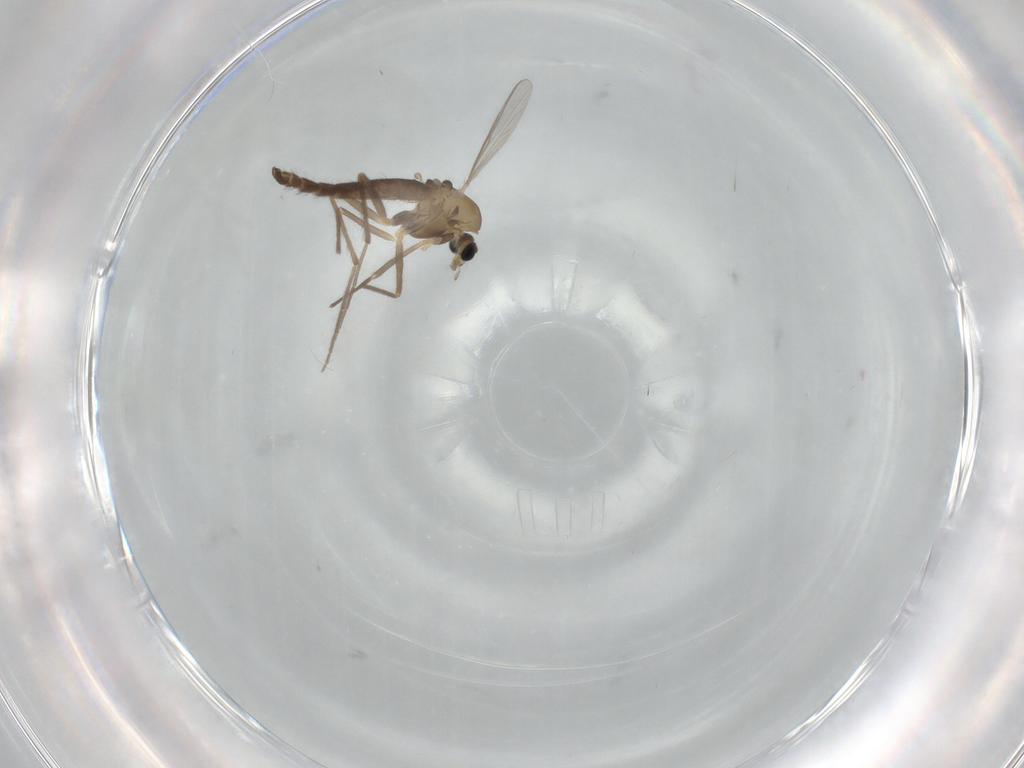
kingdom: Animalia
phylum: Arthropoda
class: Insecta
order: Diptera
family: Chironomidae
